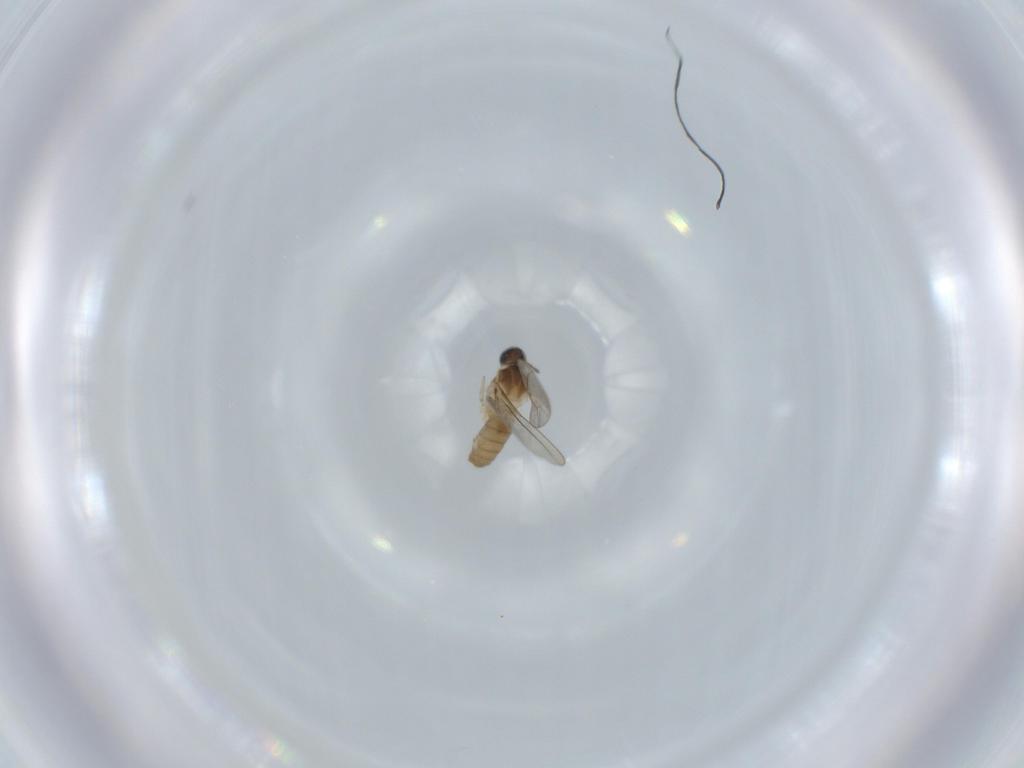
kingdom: Animalia
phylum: Arthropoda
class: Insecta
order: Diptera
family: Cecidomyiidae
